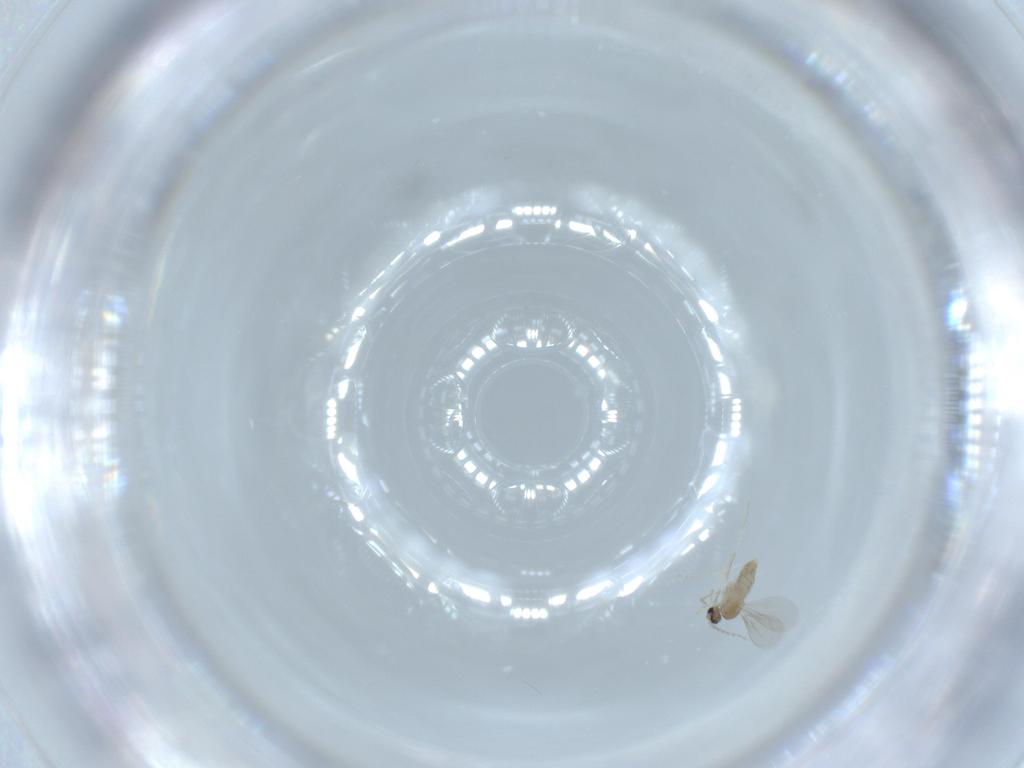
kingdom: Animalia
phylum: Arthropoda
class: Insecta
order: Diptera
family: Cecidomyiidae
